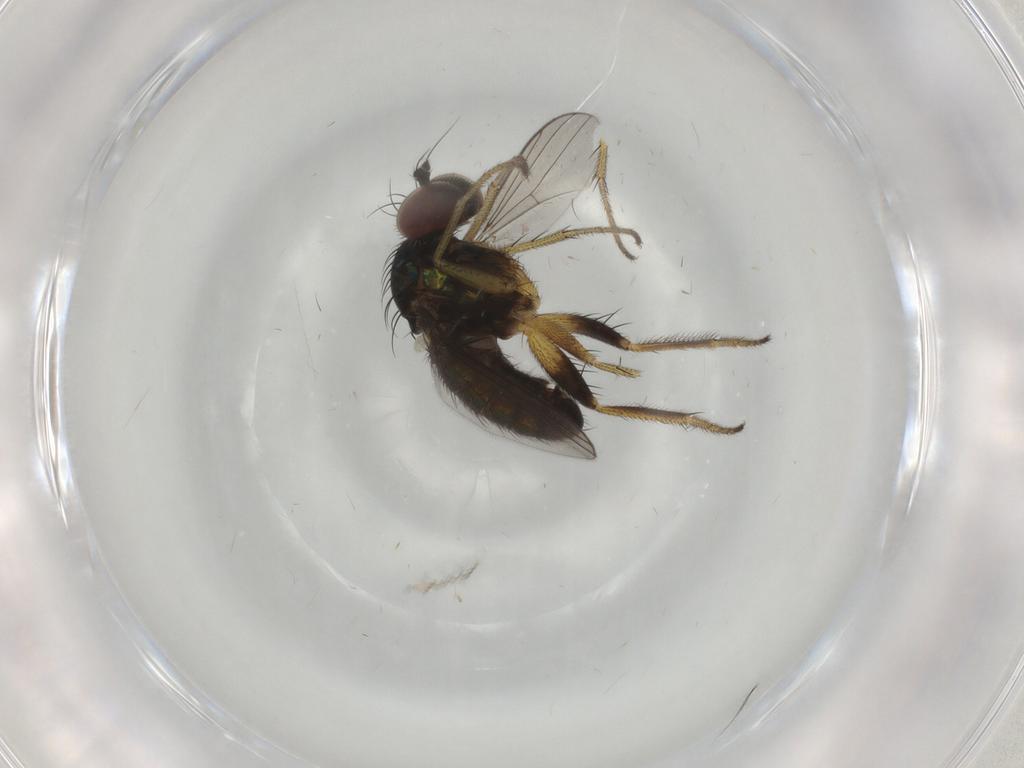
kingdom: Animalia
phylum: Arthropoda
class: Insecta
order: Diptera
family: Dolichopodidae
